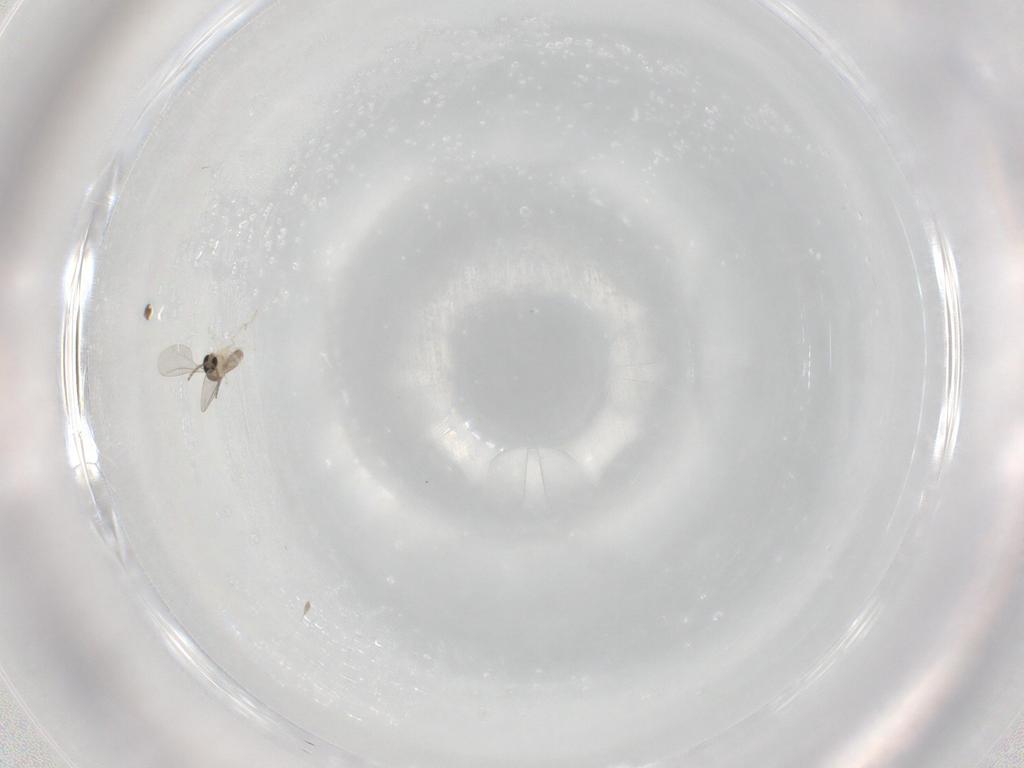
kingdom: Animalia
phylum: Arthropoda
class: Insecta
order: Diptera
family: Cecidomyiidae
